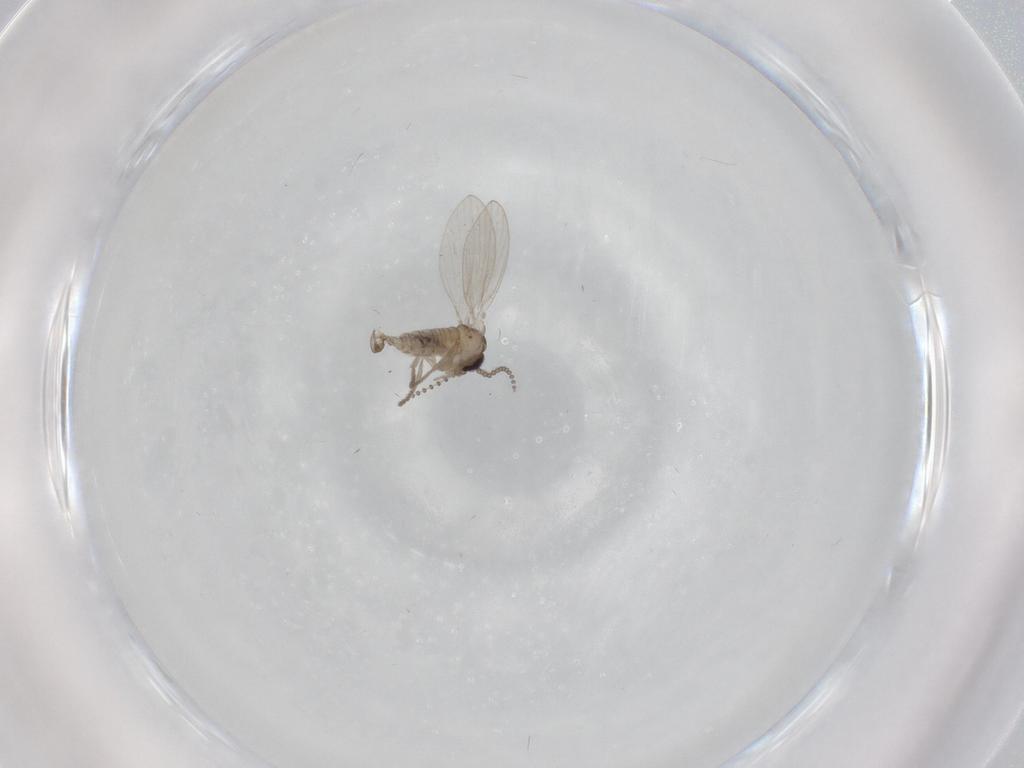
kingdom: Animalia
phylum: Arthropoda
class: Insecta
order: Diptera
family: Psychodidae
